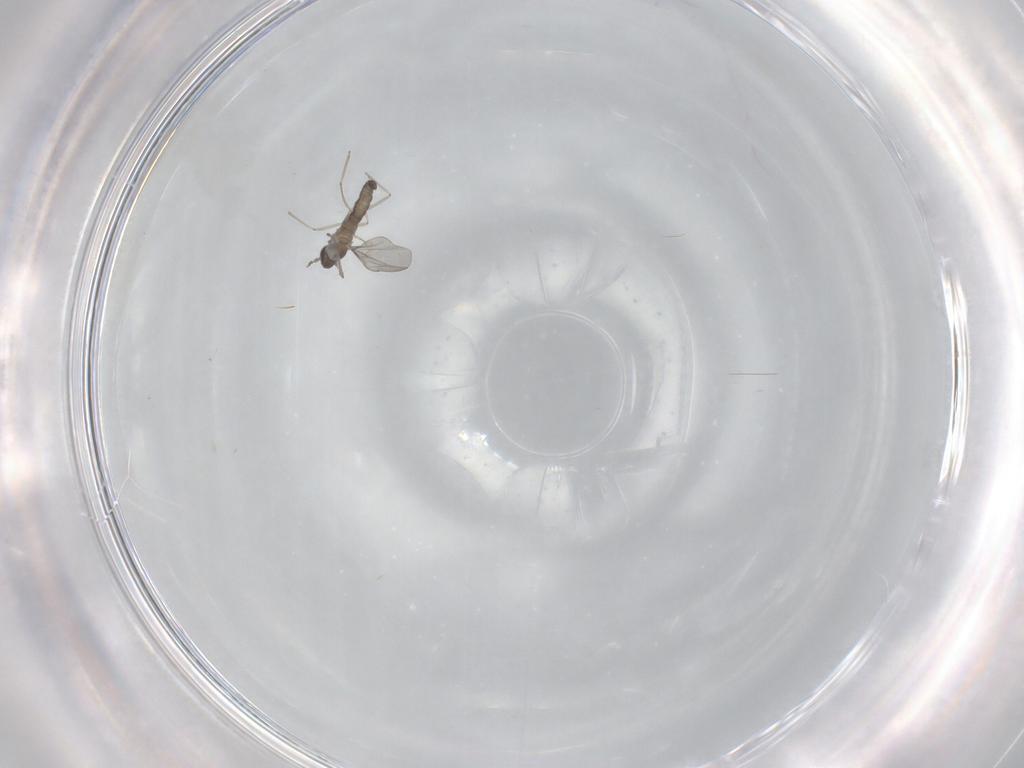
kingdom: Animalia
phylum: Arthropoda
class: Insecta
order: Diptera
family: Cecidomyiidae
